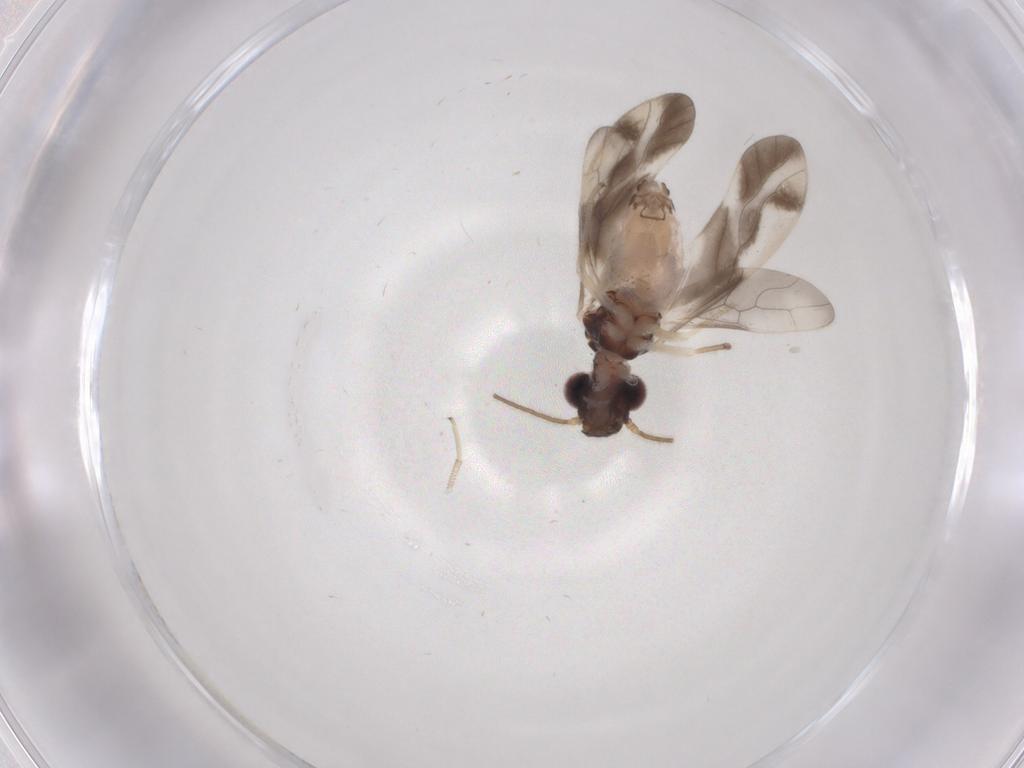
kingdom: Animalia
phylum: Arthropoda
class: Insecta
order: Psocodea
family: Caeciliusidae
